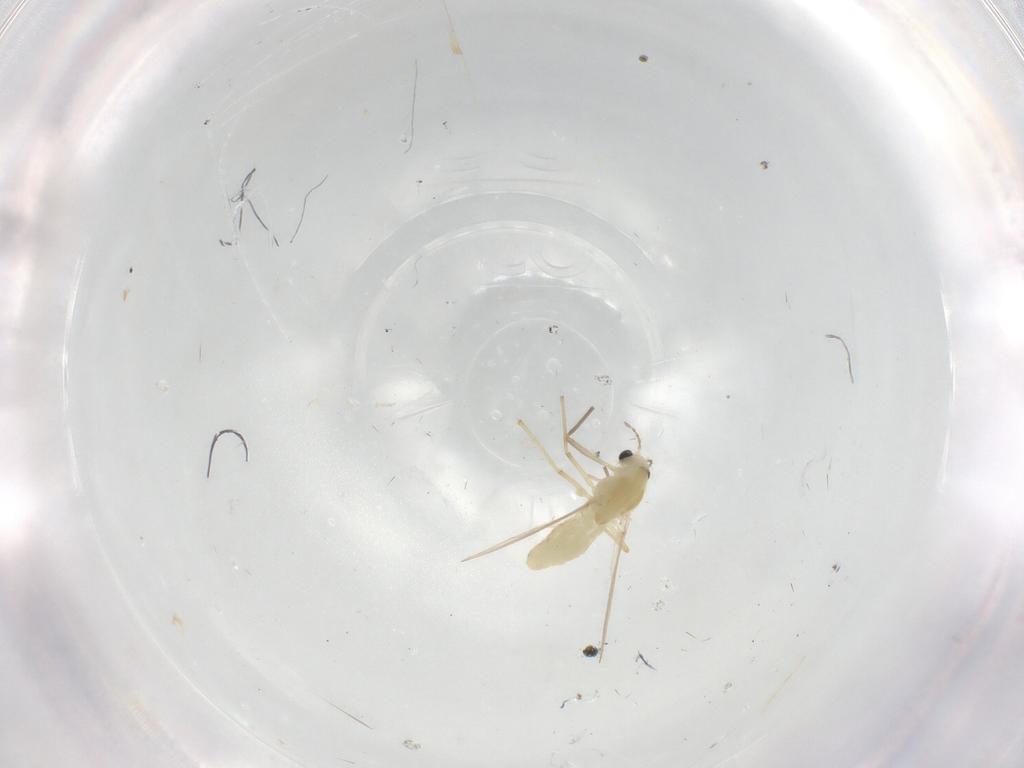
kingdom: Animalia
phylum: Arthropoda
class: Insecta
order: Diptera
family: Chironomidae
